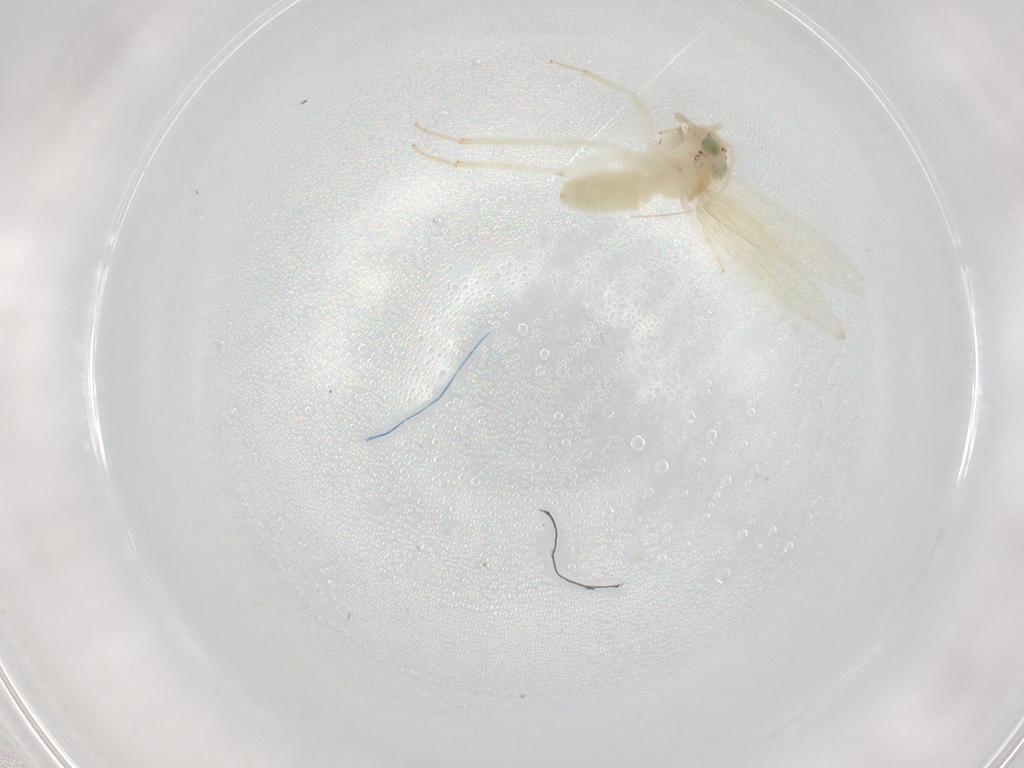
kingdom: Animalia
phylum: Arthropoda
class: Insecta
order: Psocodea
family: Lepidopsocidae
